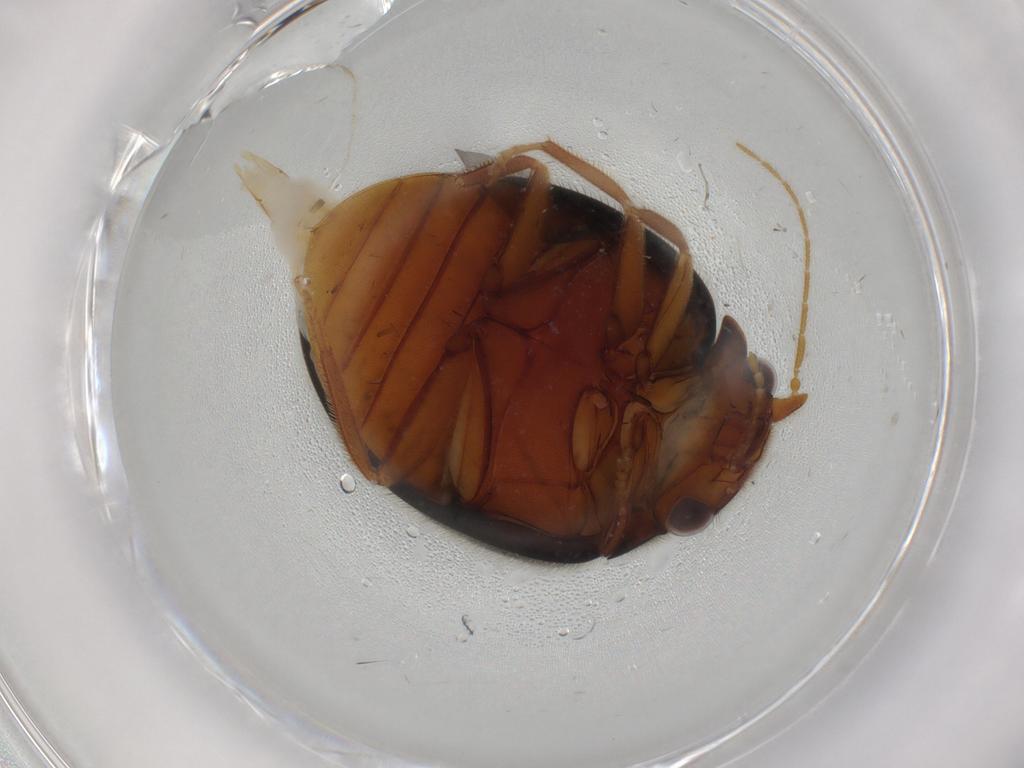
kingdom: Animalia
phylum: Arthropoda
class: Insecta
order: Coleoptera
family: Scirtidae
